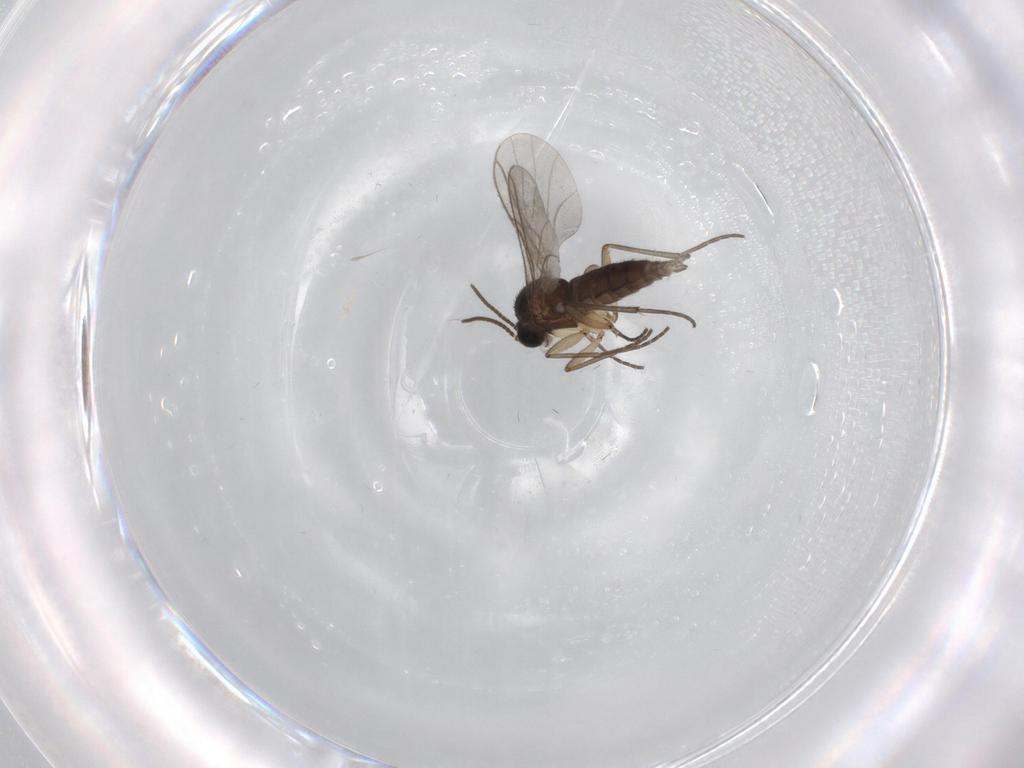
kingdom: Animalia
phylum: Arthropoda
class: Insecta
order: Diptera
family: Sciaridae
